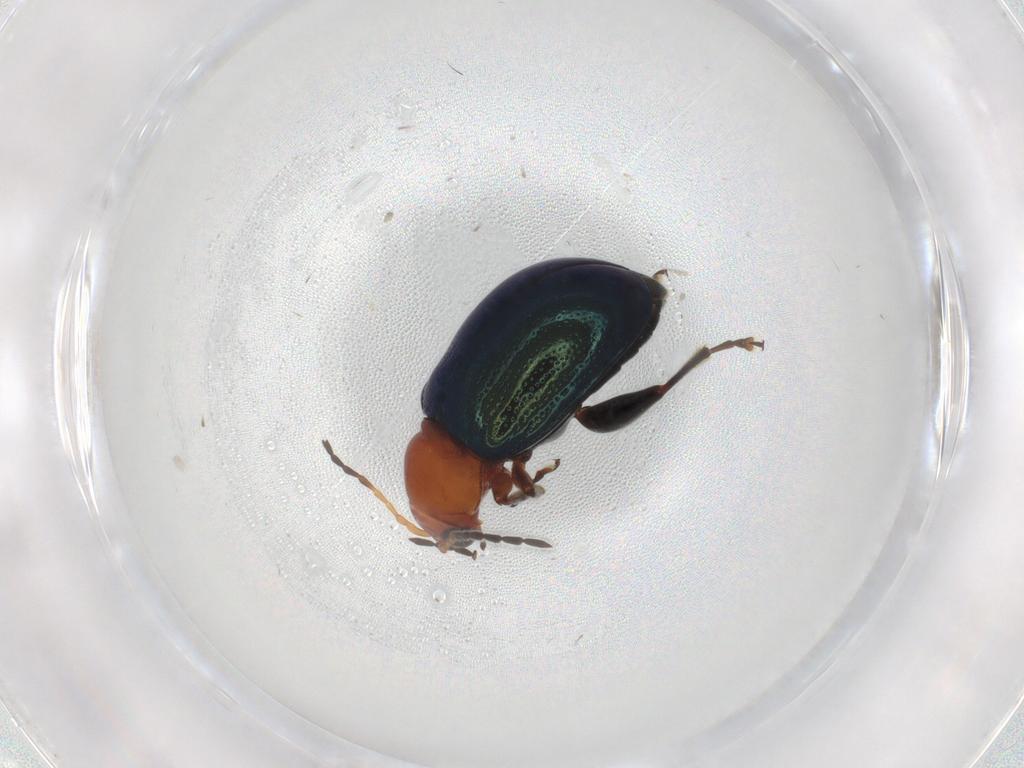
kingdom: Animalia
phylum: Arthropoda
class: Insecta
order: Coleoptera
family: Chrysomelidae
